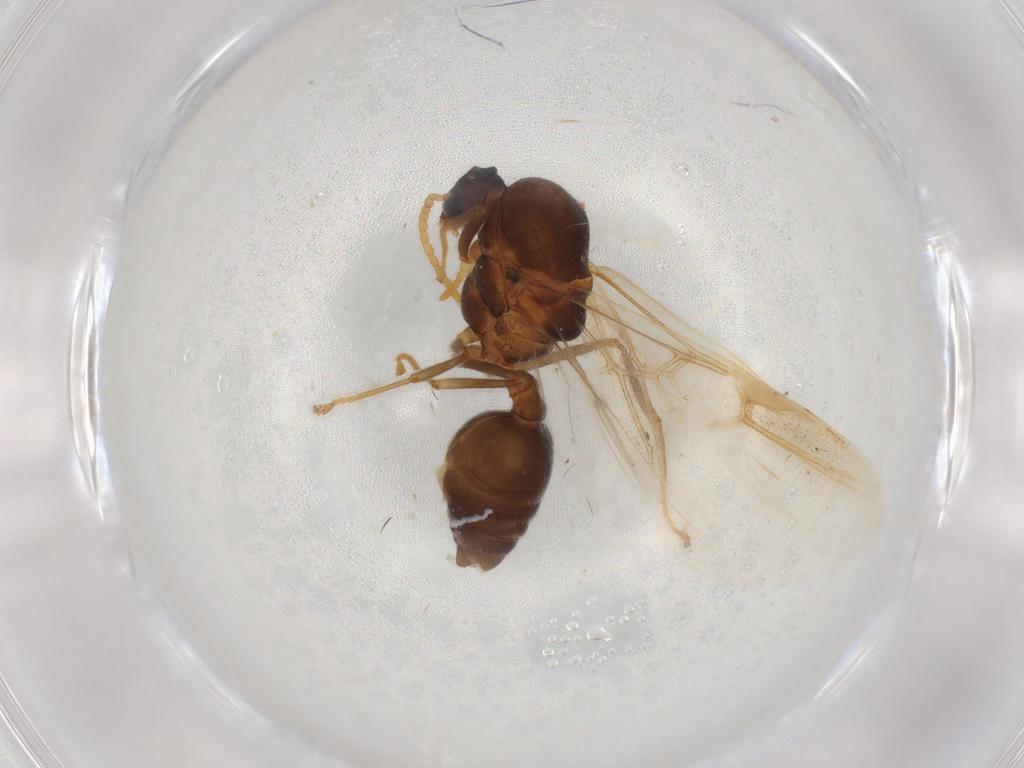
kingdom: Animalia
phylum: Arthropoda
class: Insecta
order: Hymenoptera
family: Formicidae
